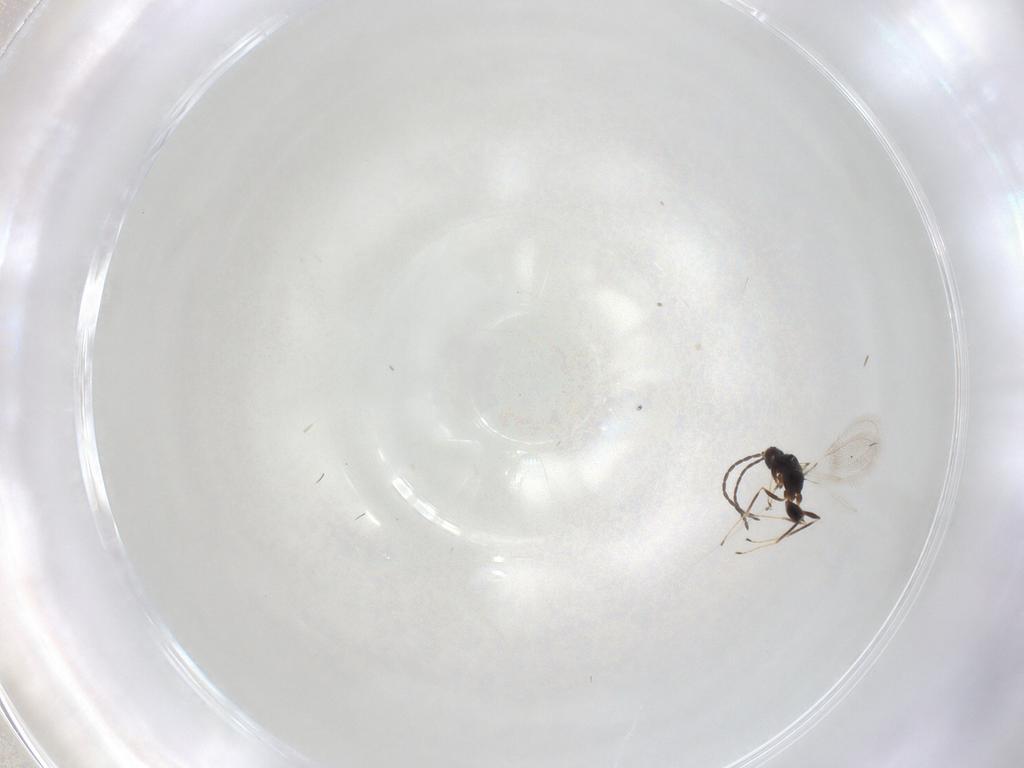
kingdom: Animalia
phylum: Arthropoda
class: Insecta
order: Hymenoptera
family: Mymaridae
